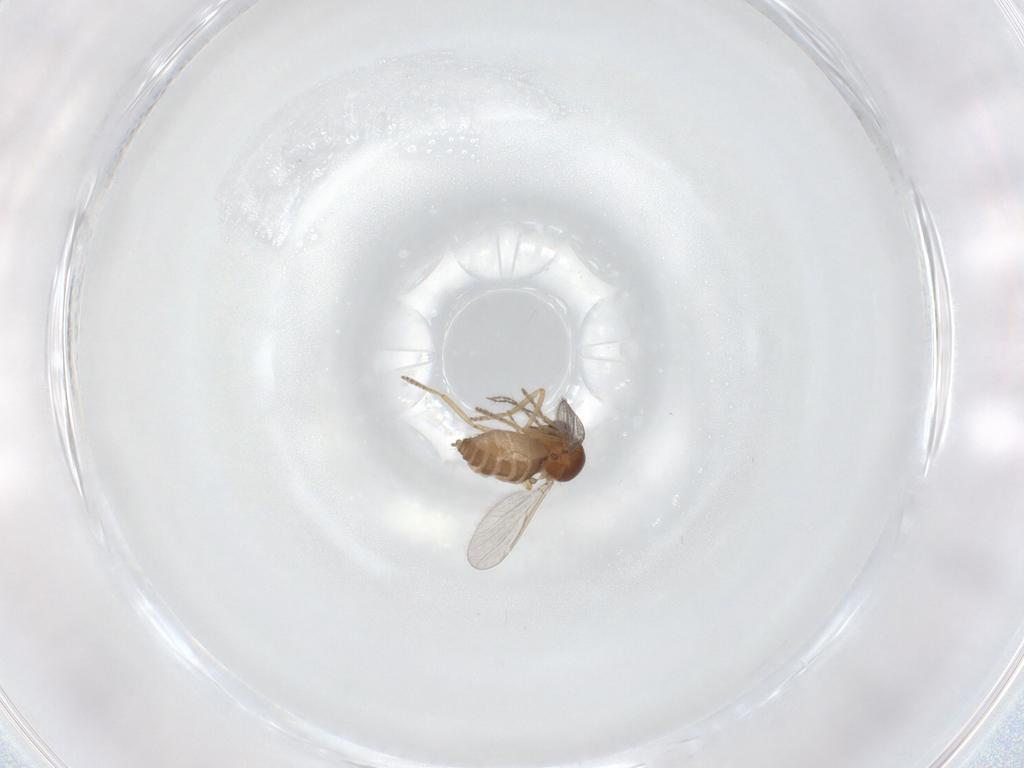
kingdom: Animalia
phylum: Arthropoda
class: Insecta
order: Diptera
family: Ceratopogonidae
